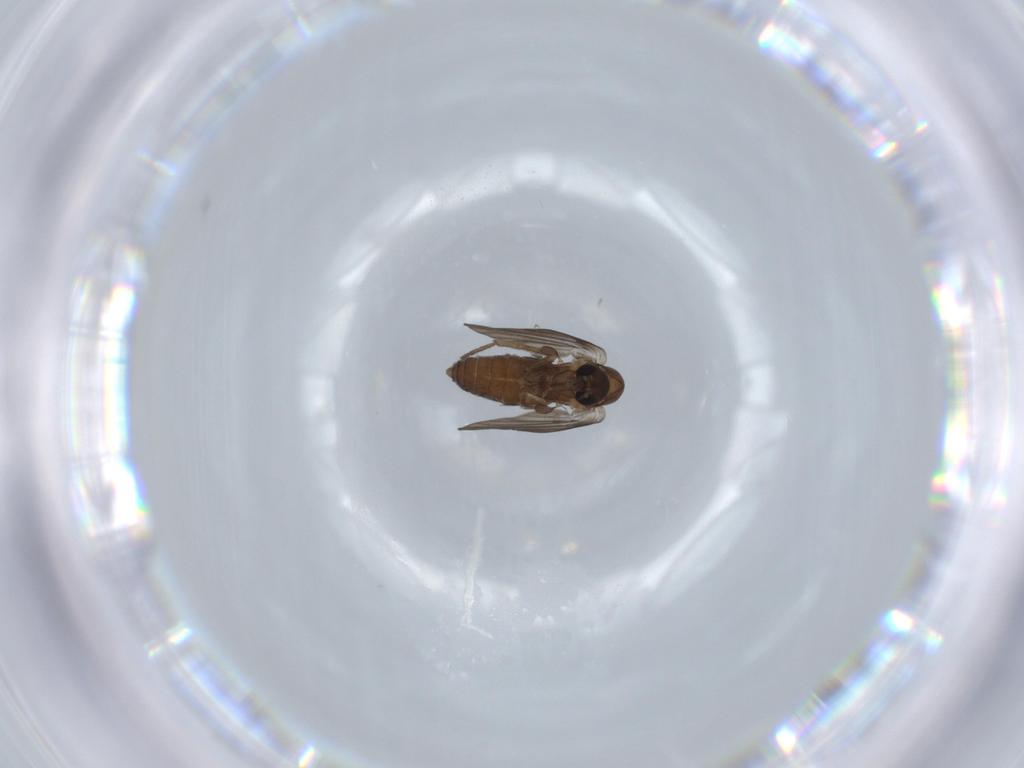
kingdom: Animalia
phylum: Arthropoda
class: Insecta
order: Diptera
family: Psychodidae
